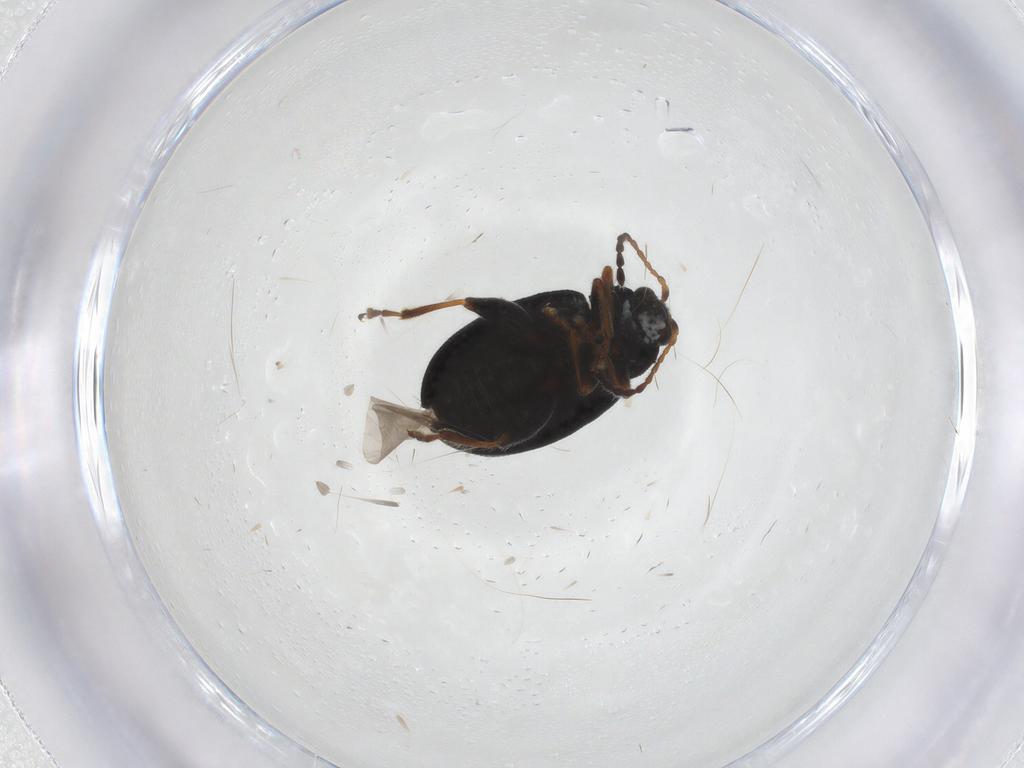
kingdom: Animalia
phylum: Arthropoda
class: Insecta
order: Coleoptera
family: Chrysomelidae
